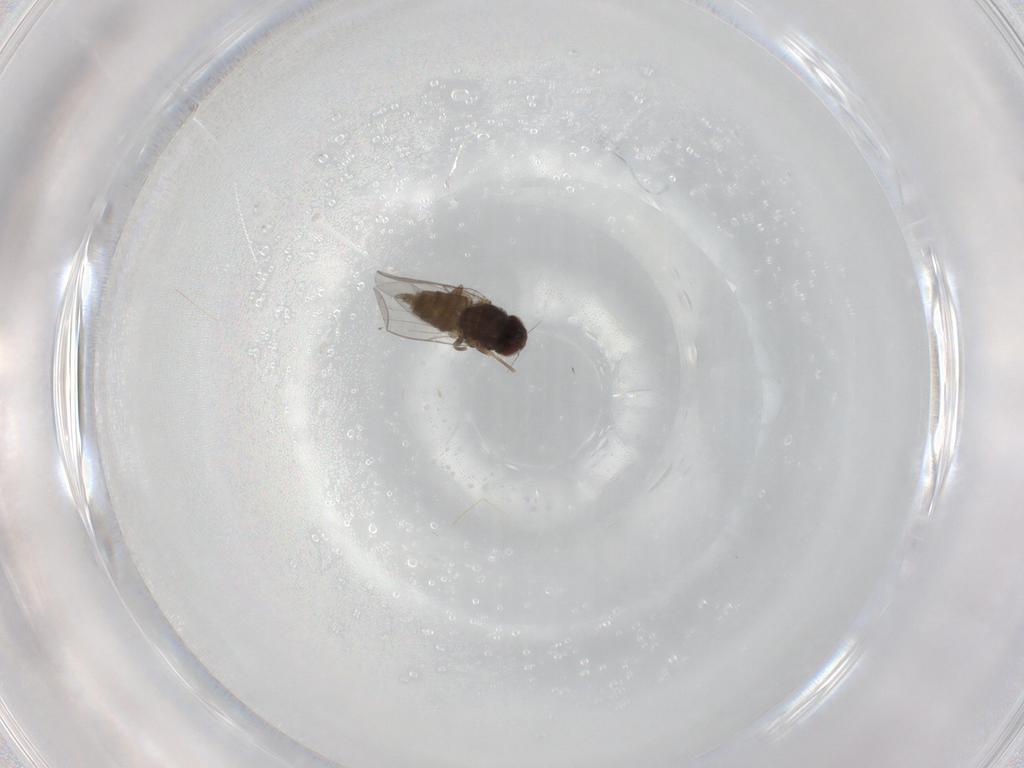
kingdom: Animalia
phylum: Arthropoda
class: Insecta
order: Diptera
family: Chloropidae
